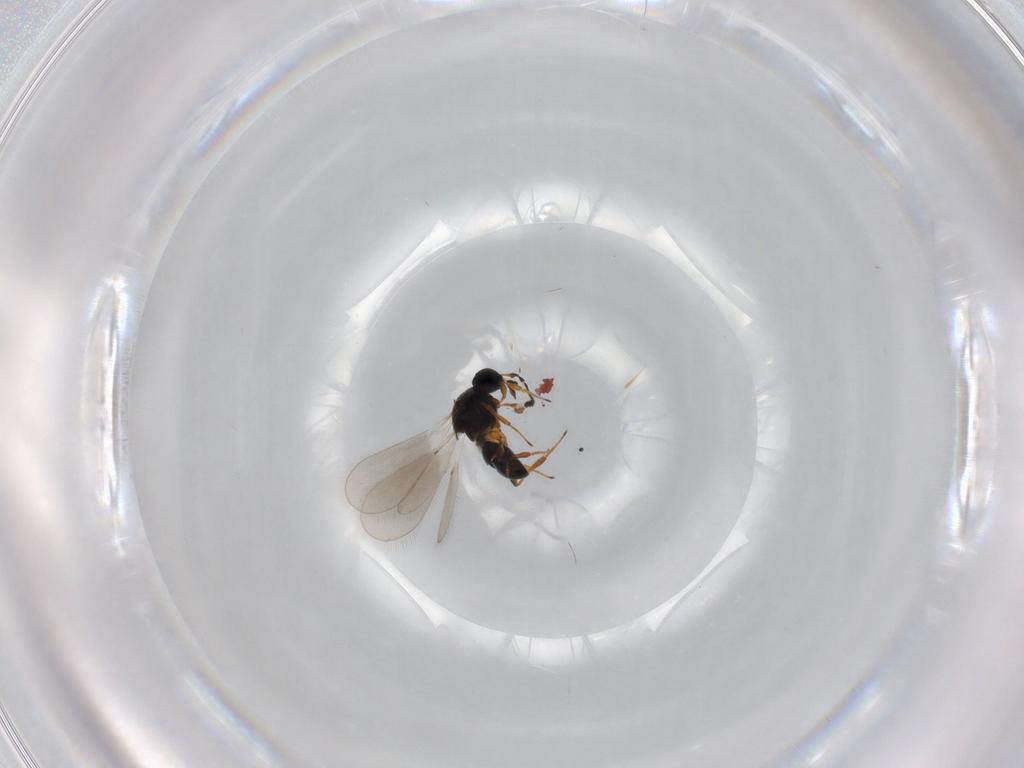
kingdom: Animalia
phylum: Arthropoda
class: Insecta
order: Hymenoptera
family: Platygastridae
